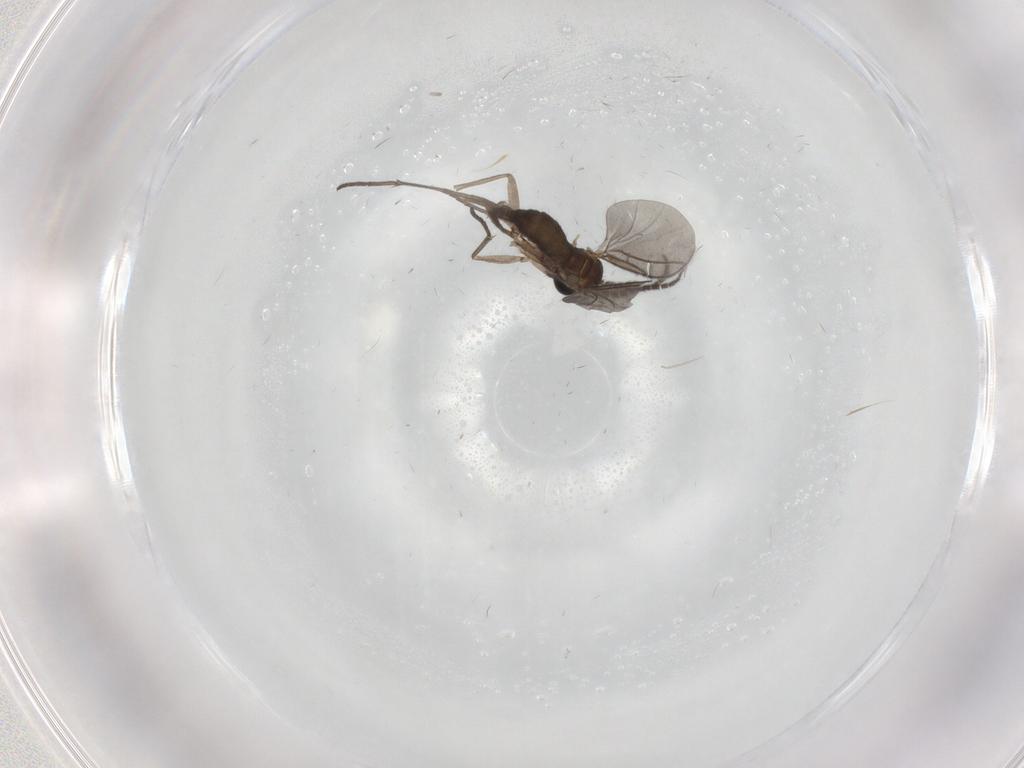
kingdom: Animalia
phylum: Arthropoda
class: Insecta
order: Diptera
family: Sciaridae
